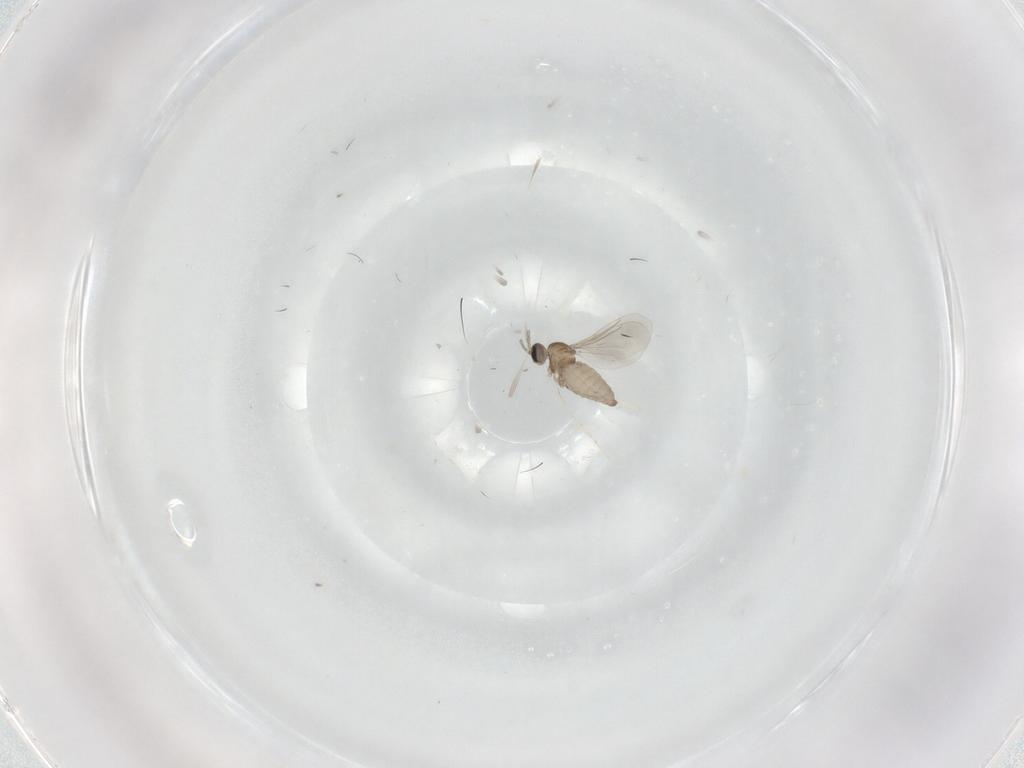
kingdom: Animalia
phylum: Arthropoda
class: Insecta
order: Diptera
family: Cecidomyiidae
